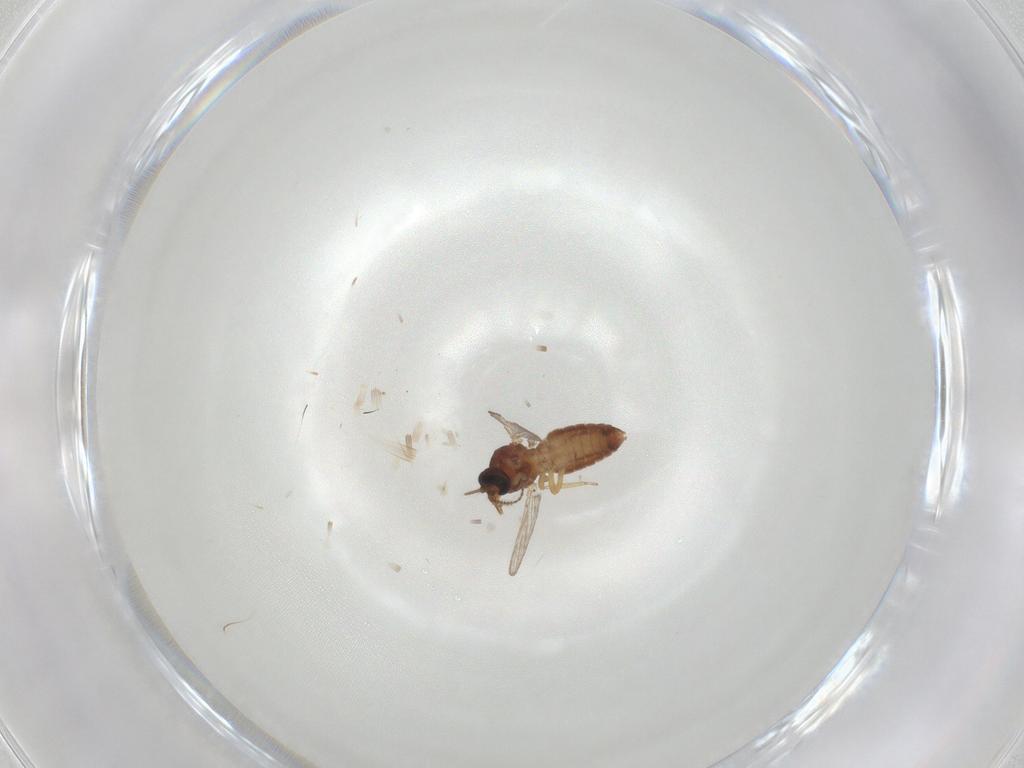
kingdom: Animalia
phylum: Arthropoda
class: Insecta
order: Diptera
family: Ceratopogonidae
